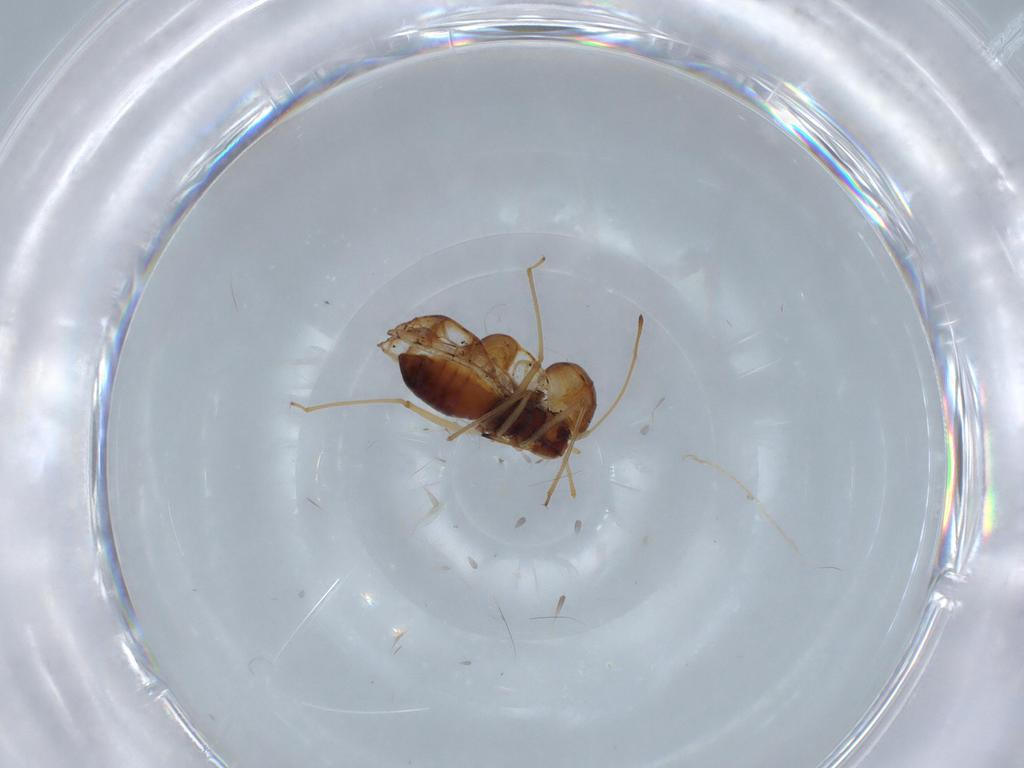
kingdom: Animalia
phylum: Arthropoda
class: Insecta
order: Hemiptera
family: Tingidae
